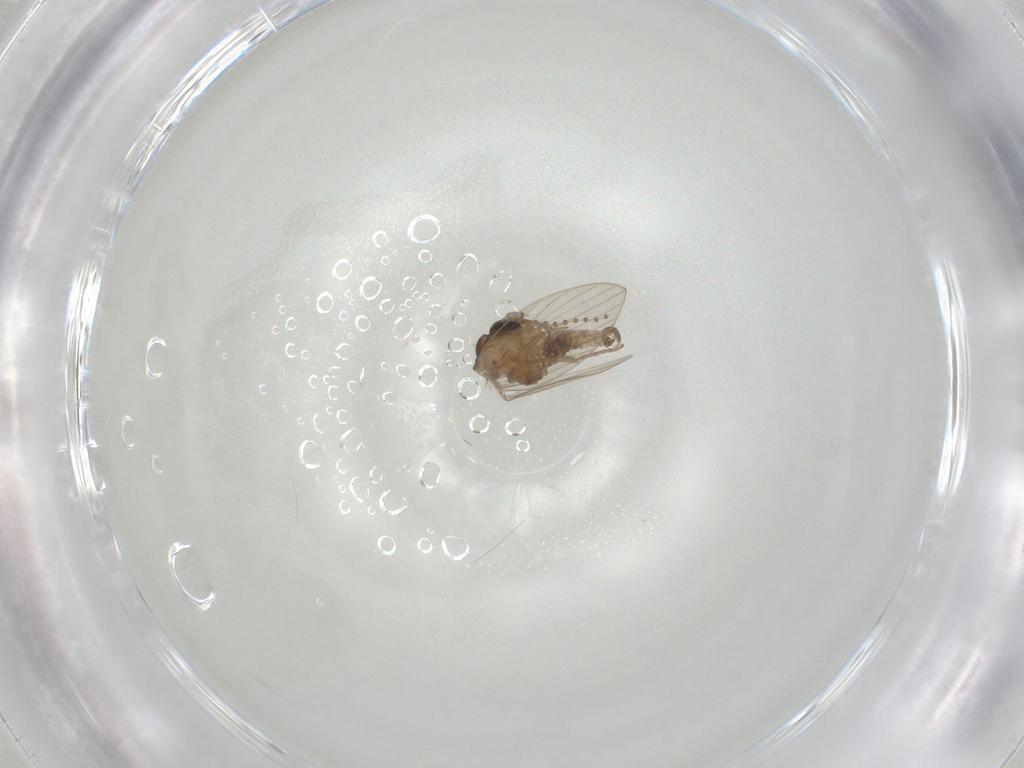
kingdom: Animalia
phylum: Arthropoda
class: Insecta
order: Diptera
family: Psychodidae
